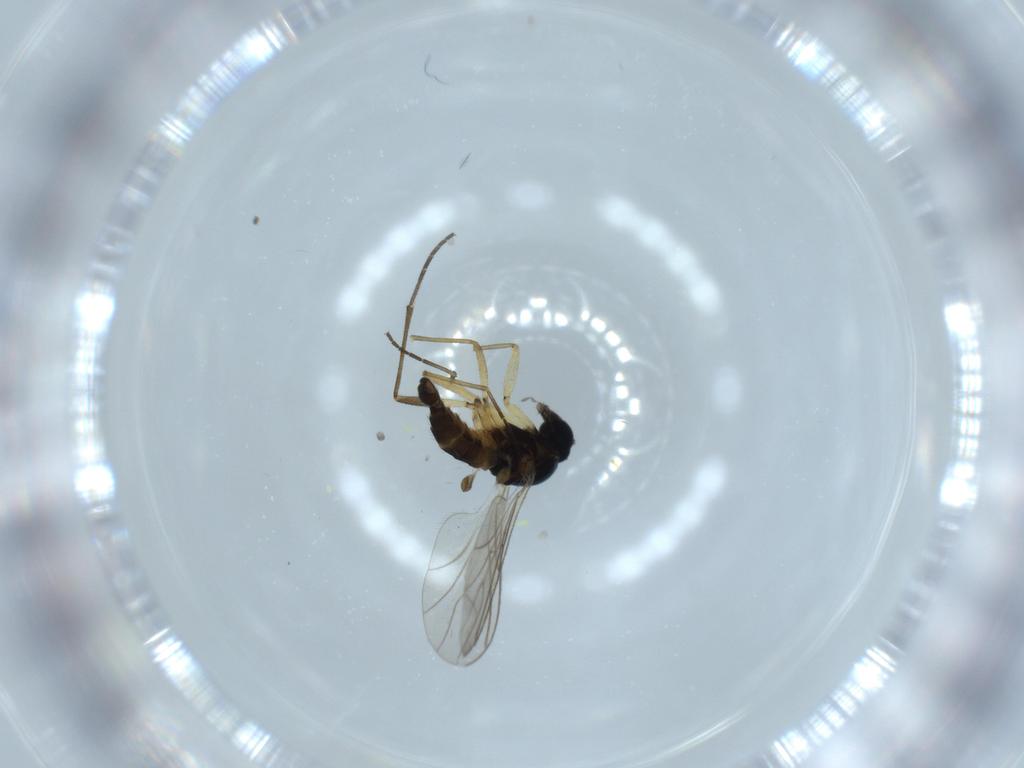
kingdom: Animalia
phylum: Arthropoda
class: Insecta
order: Diptera
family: Sciaridae
